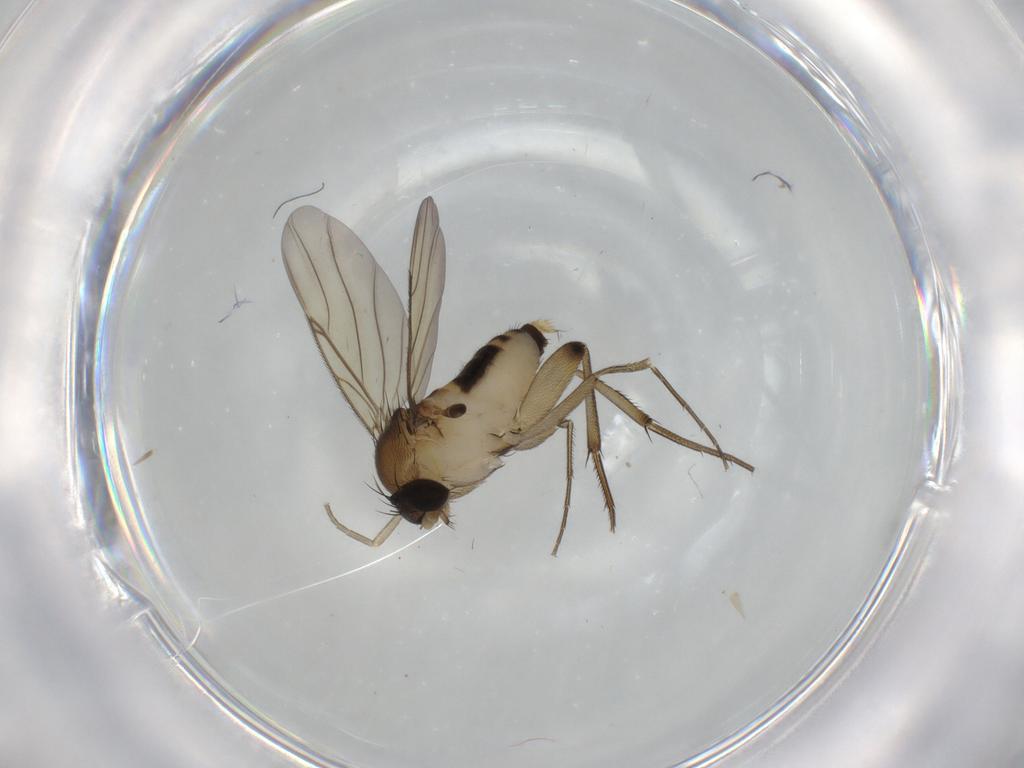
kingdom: Animalia
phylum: Arthropoda
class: Insecta
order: Diptera
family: Phoridae
